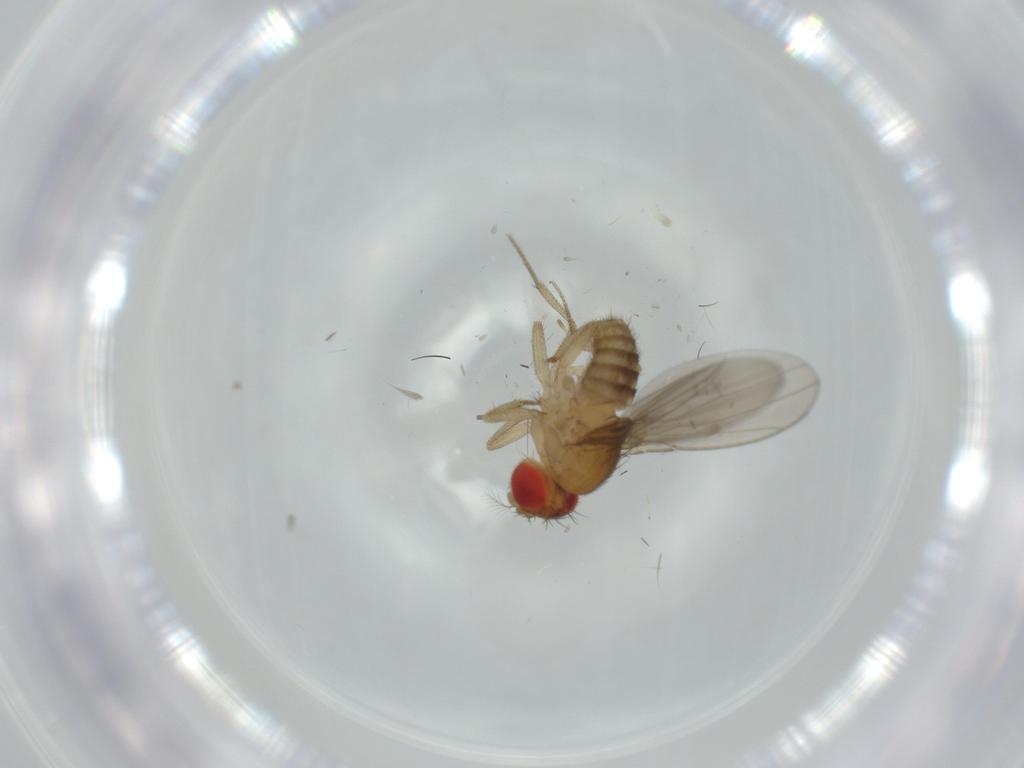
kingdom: Animalia
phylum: Arthropoda
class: Insecta
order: Diptera
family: Drosophilidae
